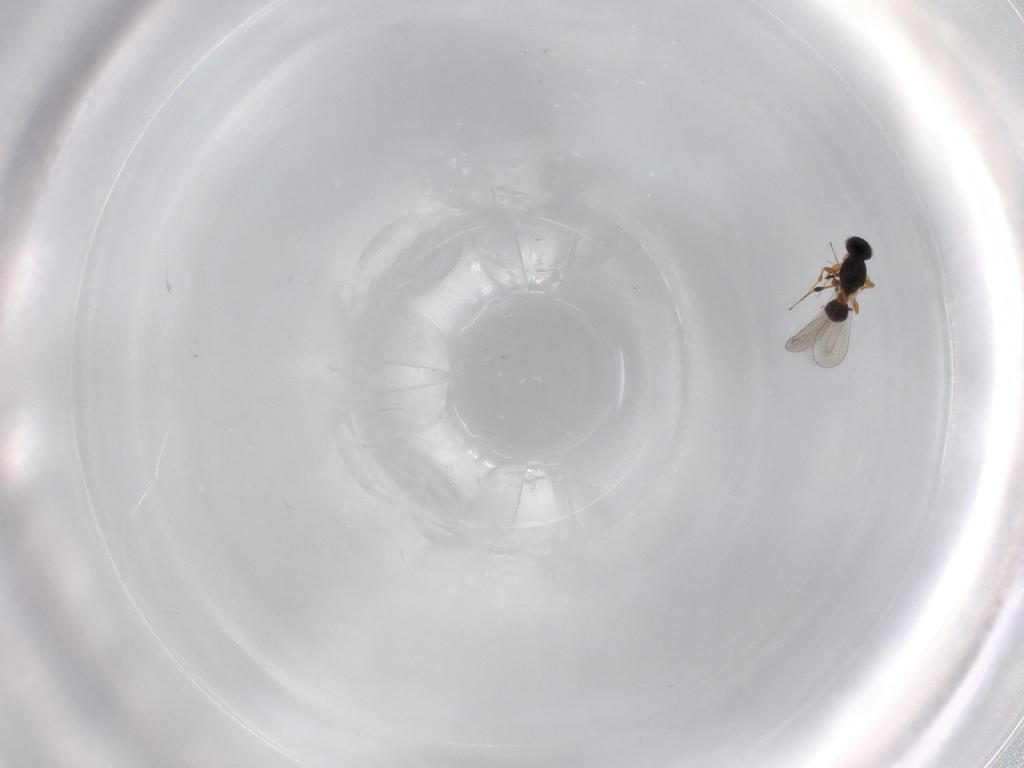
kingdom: Animalia
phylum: Arthropoda
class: Insecta
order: Hymenoptera
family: Platygastridae
